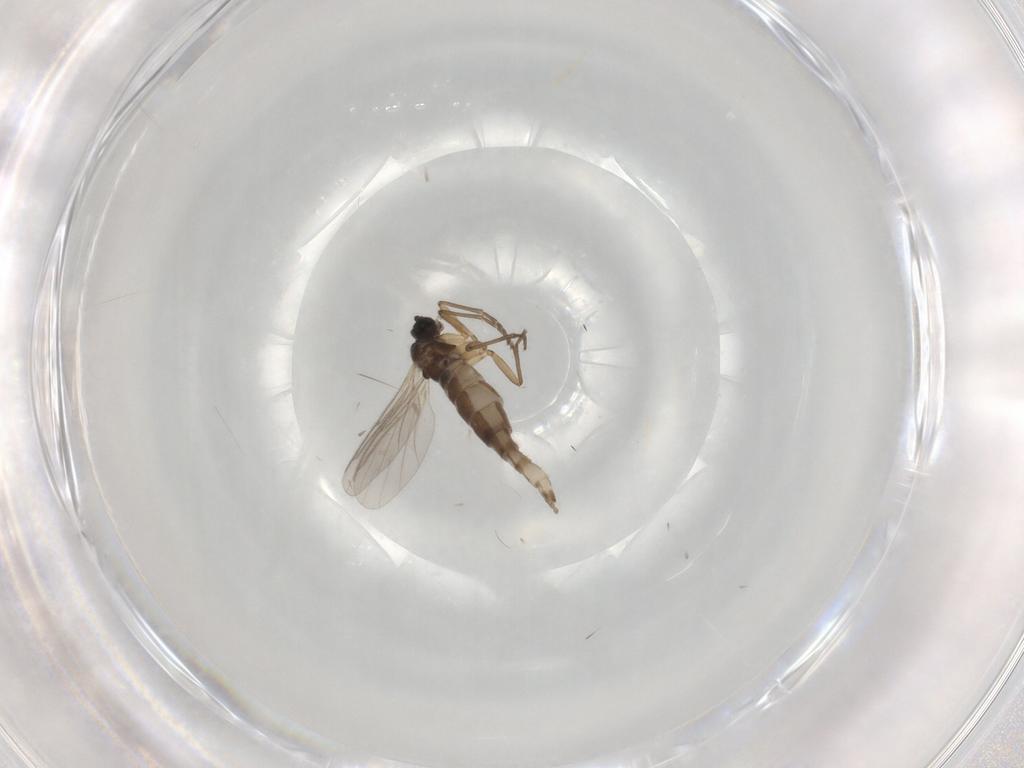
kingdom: Animalia
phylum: Arthropoda
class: Insecta
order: Diptera
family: Sciaridae
